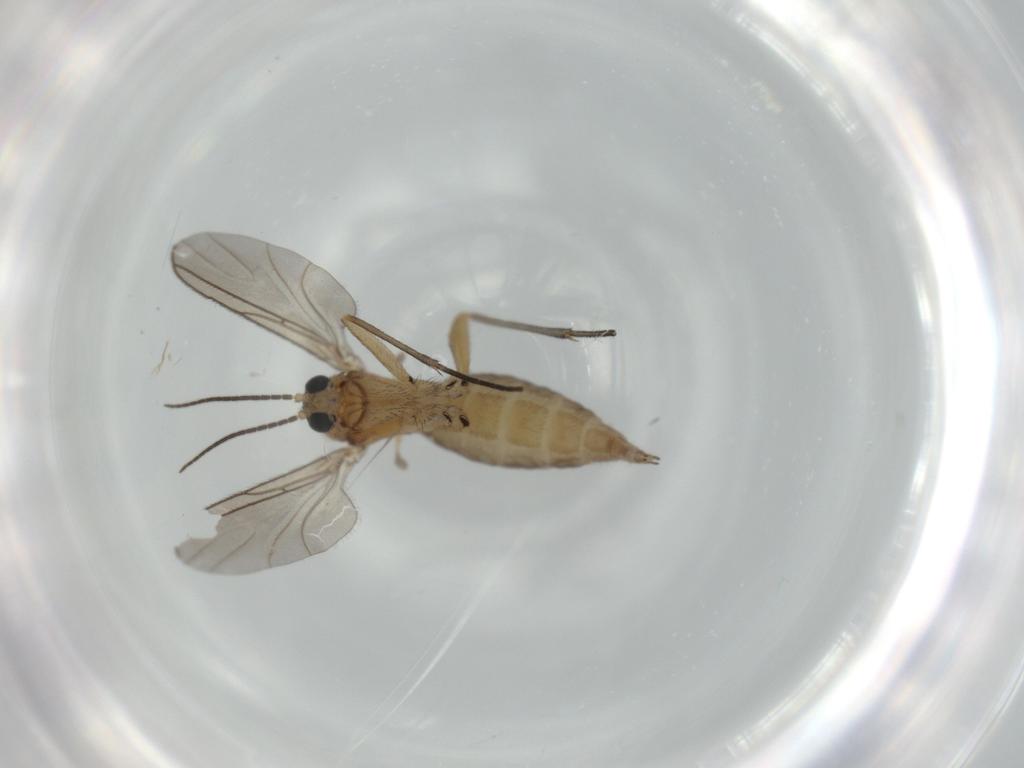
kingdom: Animalia
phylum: Arthropoda
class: Insecta
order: Diptera
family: Sciaridae
